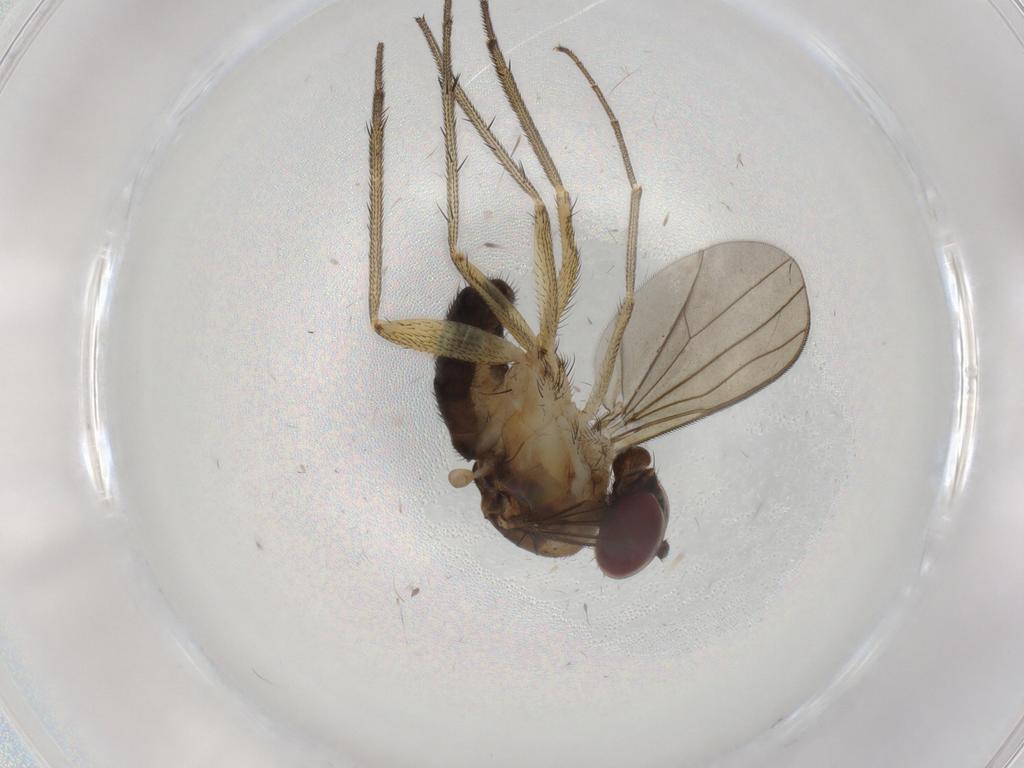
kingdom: Animalia
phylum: Arthropoda
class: Insecta
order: Diptera
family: Dolichopodidae
